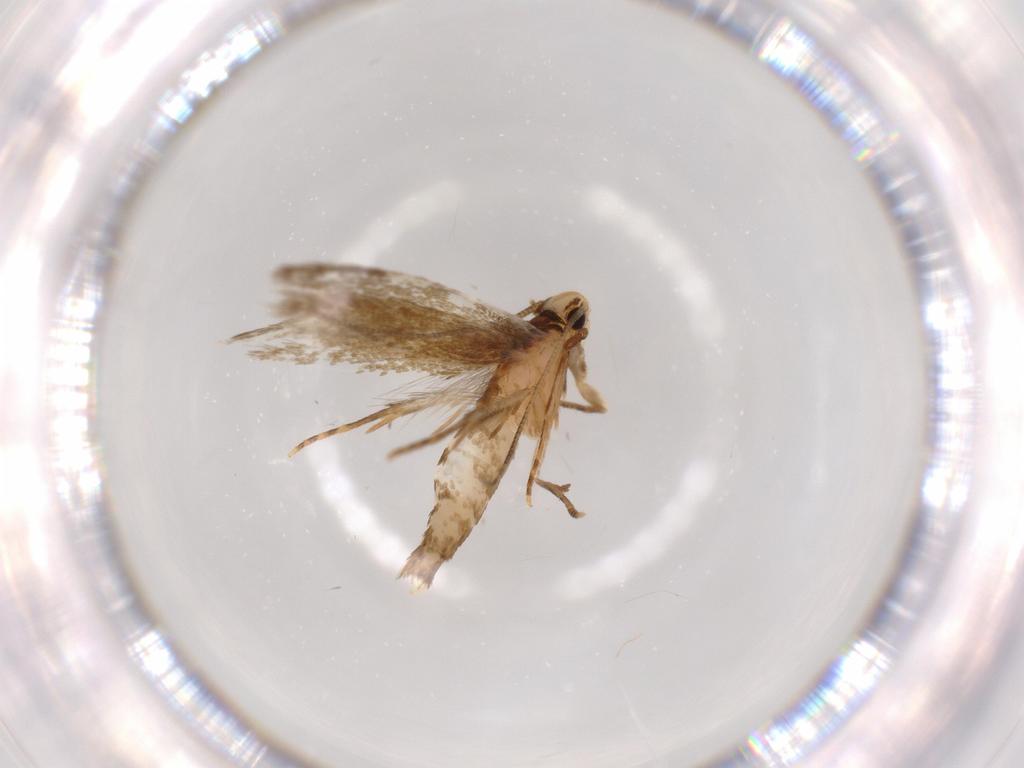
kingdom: Animalia
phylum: Arthropoda
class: Insecta
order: Lepidoptera
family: Tineidae
